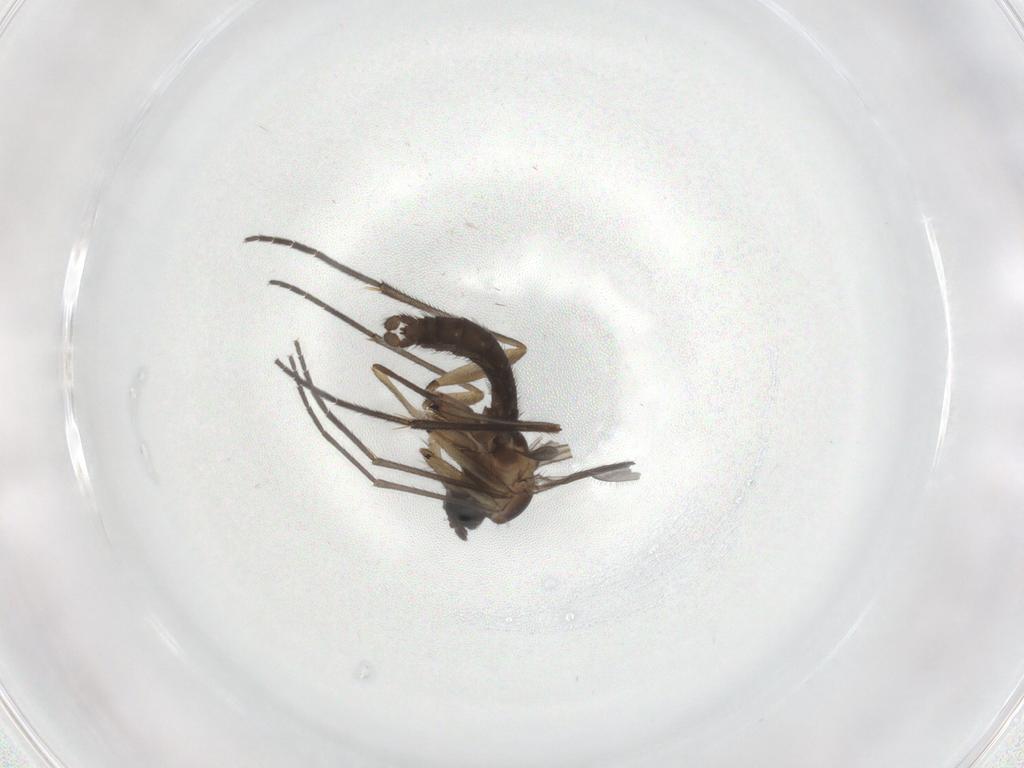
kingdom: Animalia
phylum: Arthropoda
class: Insecta
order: Diptera
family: Sciaridae
